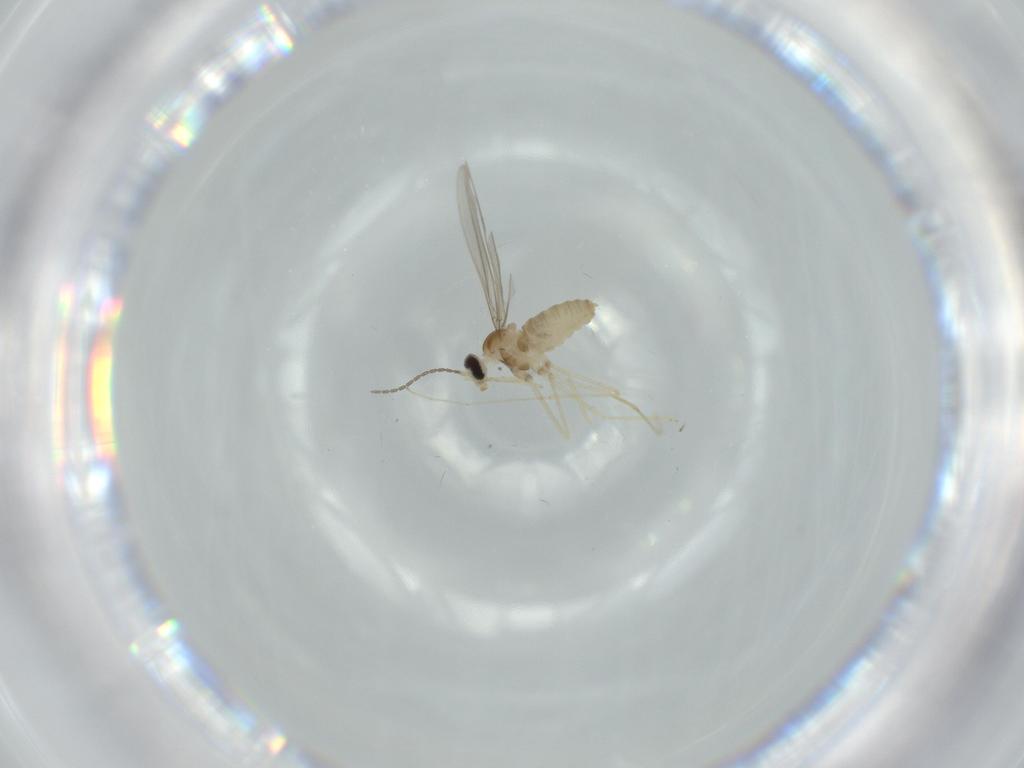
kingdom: Animalia
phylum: Arthropoda
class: Insecta
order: Diptera
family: Cecidomyiidae
